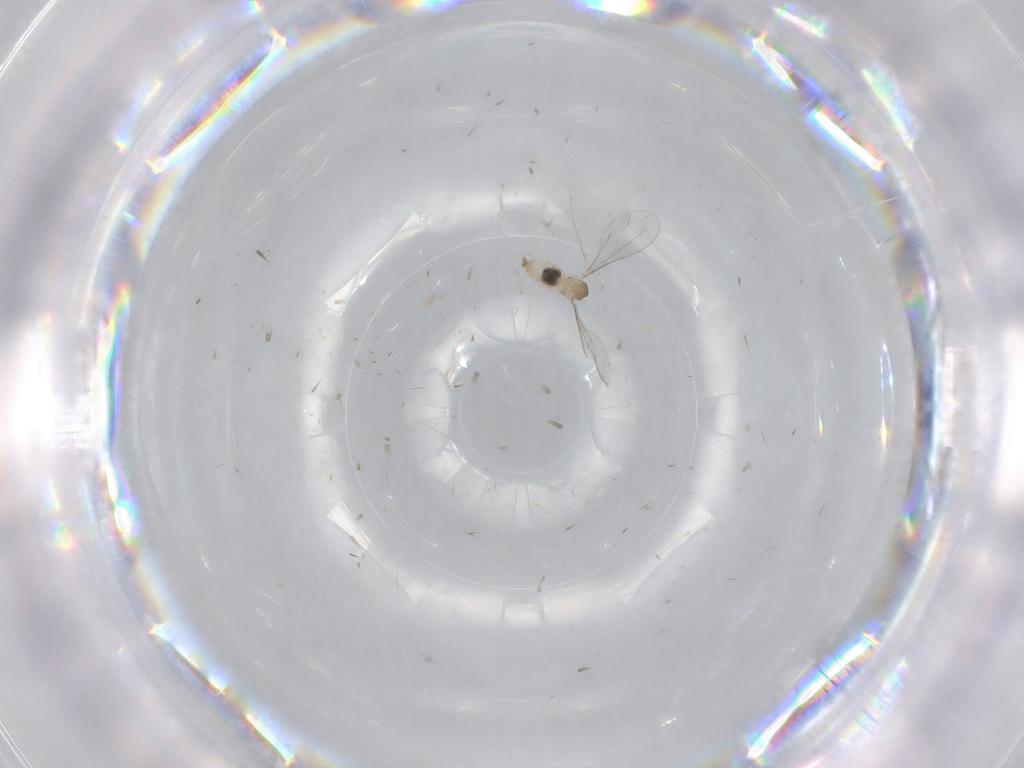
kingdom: Animalia
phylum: Arthropoda
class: Insecta
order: Diptera
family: Cecidomyiidae
